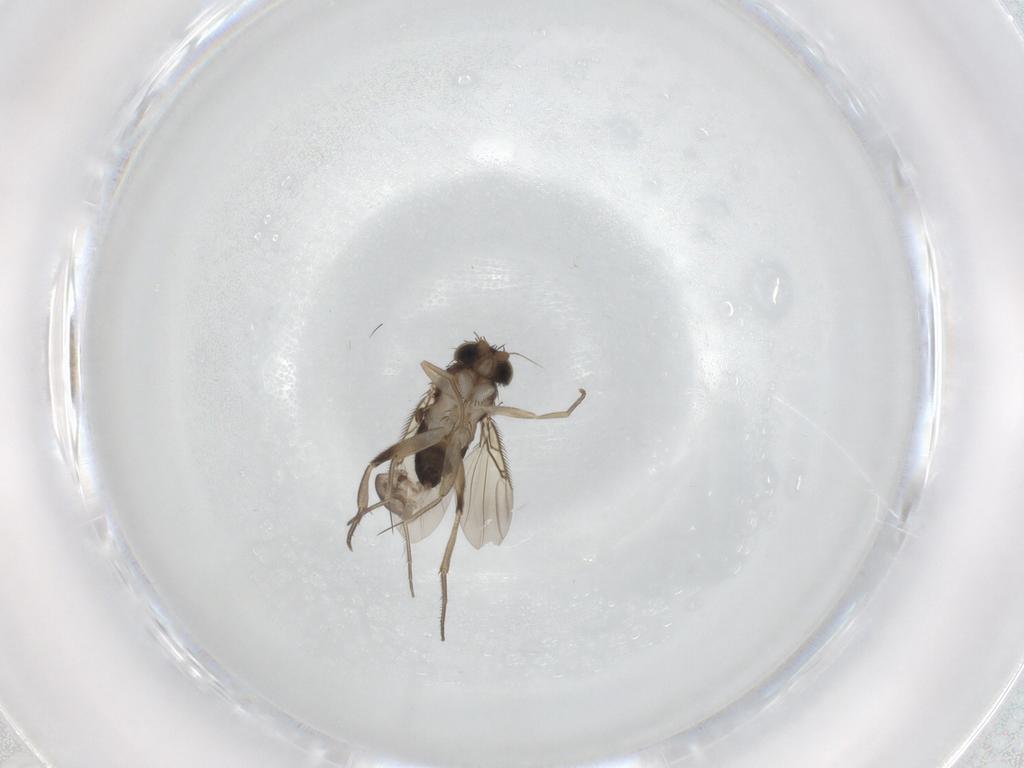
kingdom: Animalia
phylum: Arthropoda
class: Insecta
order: Diptera
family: Phoridae
